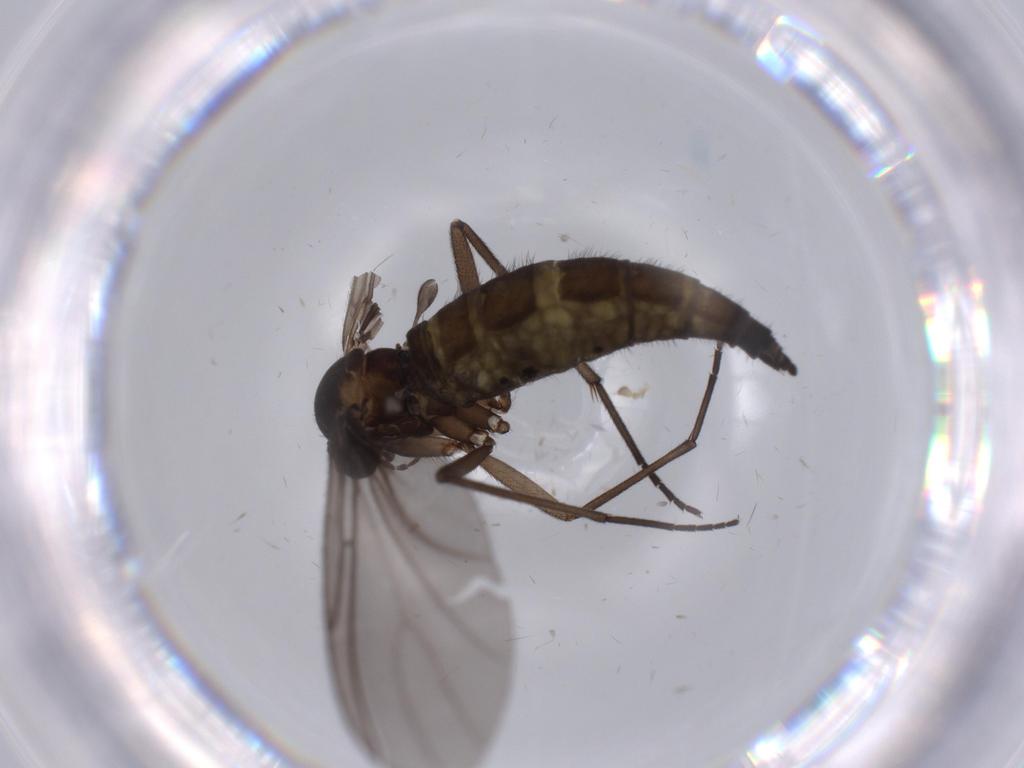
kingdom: Animalia
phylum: Arthropoda
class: Insecta
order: Diptera
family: Sciaridae
